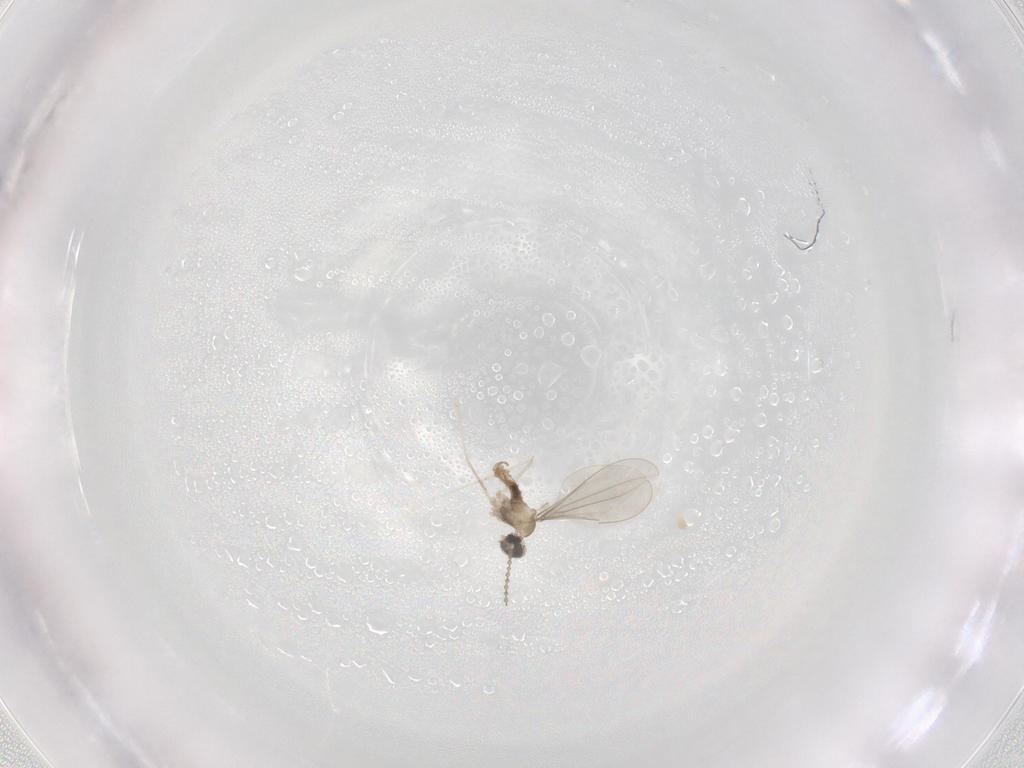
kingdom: Animalia
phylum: Arthropoda
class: Insecta
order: Diptera
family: Cecidomyiidae
